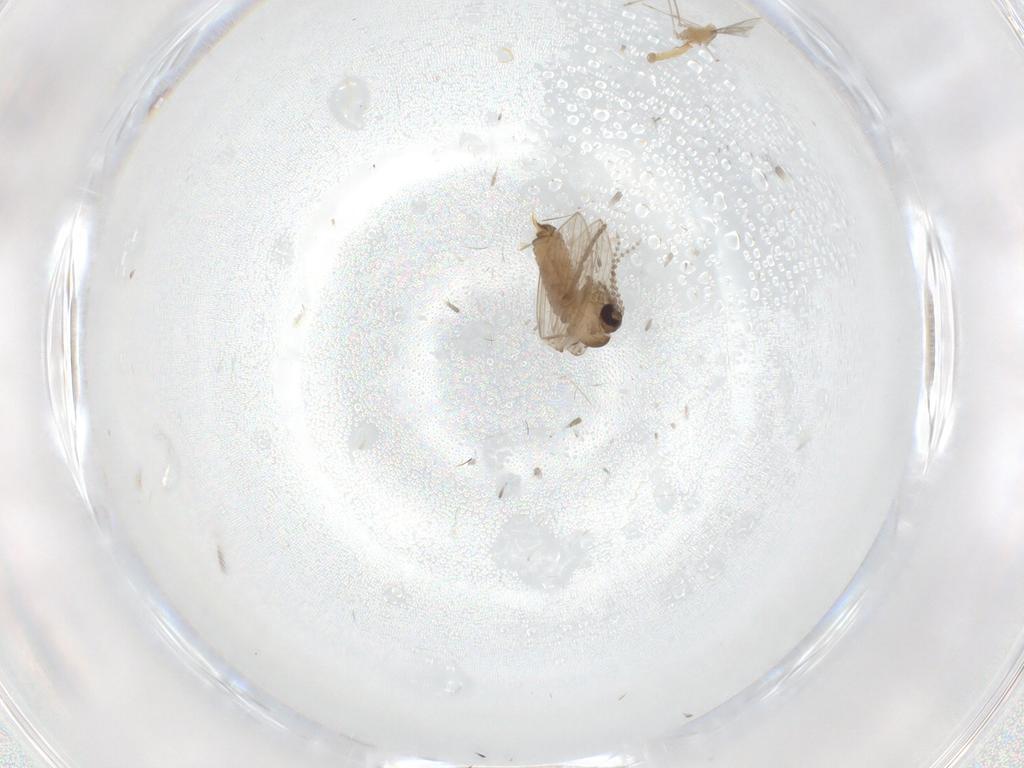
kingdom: Animalia
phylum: Arthropoda
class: Insecta
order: Diptera
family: Psychodidae
